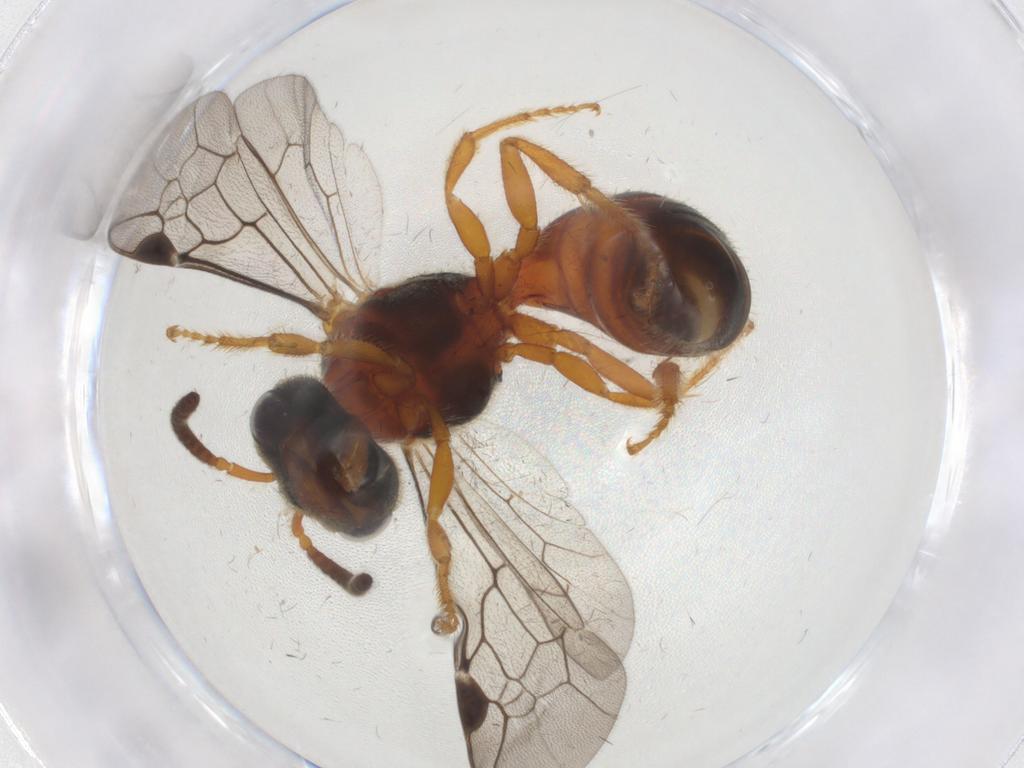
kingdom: Animalia
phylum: Arthropoda
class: Insecta
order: Hymenoptera
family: Halictidae
